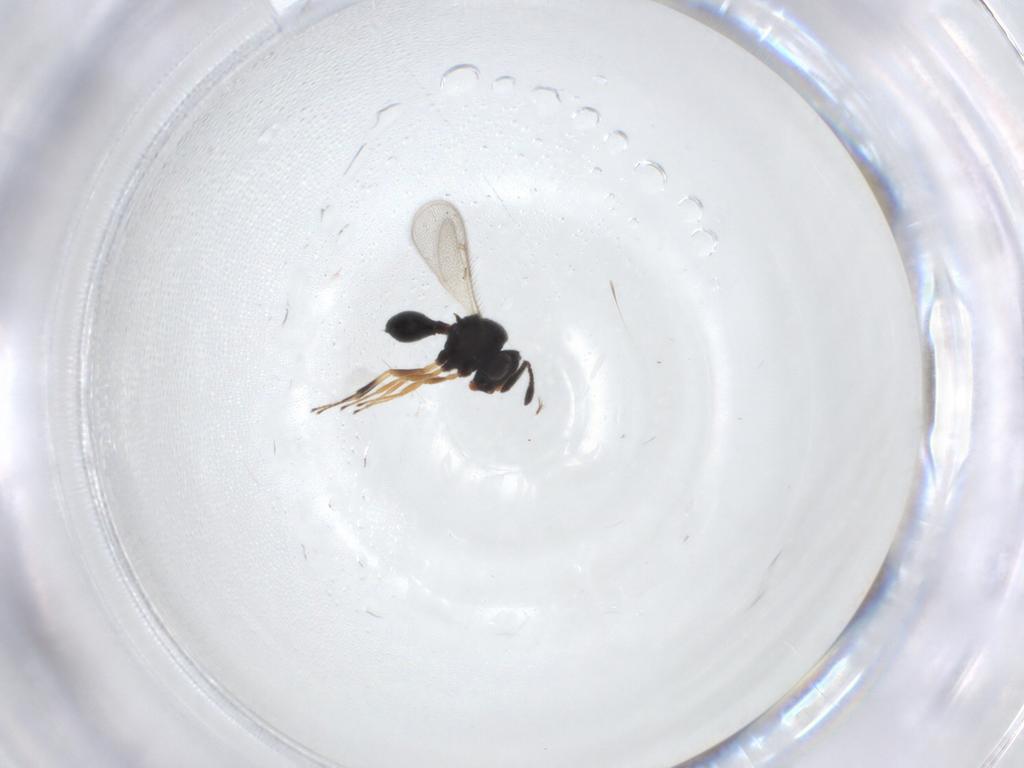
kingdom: Animalia
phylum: Arthropoda
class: Insecta
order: Hymenoptera
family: Scelionidae
